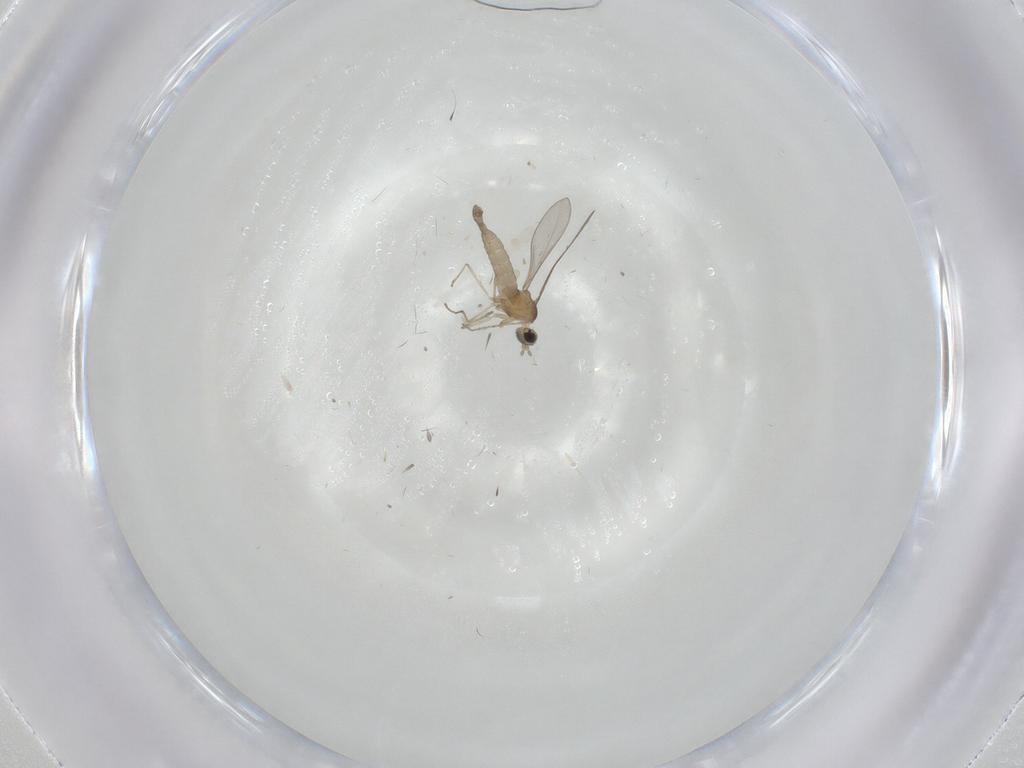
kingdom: Animalia
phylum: Arthropoda
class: Insecta
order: Diptera
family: Cecidomyiidae
